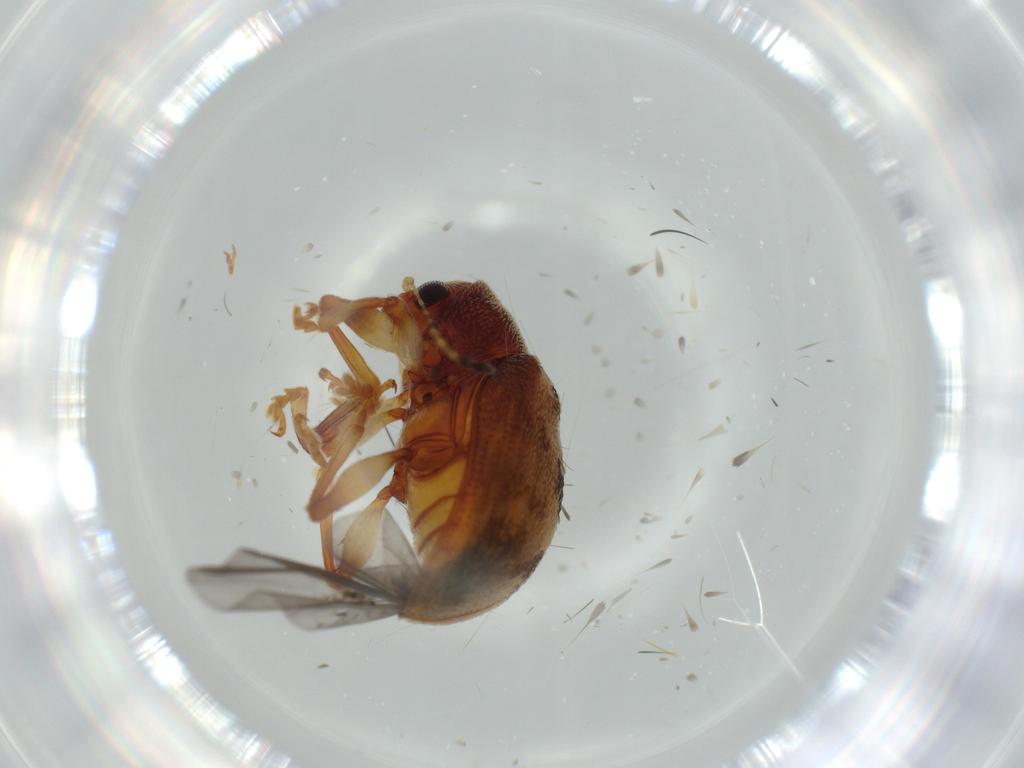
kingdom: Animalia
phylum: Arthropoda
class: Insecta
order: Coleoptera
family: Chrysomelidae
